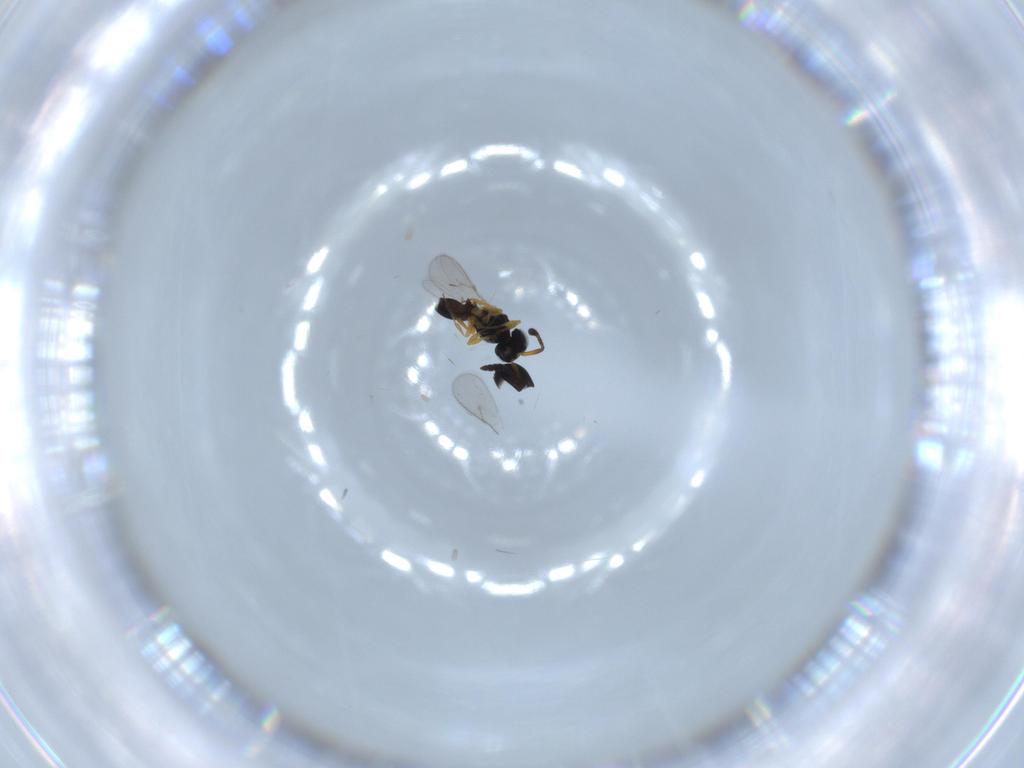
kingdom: Animalia
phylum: Arthropoda
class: Insecta
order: Hymenoptera
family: Scelionidae
